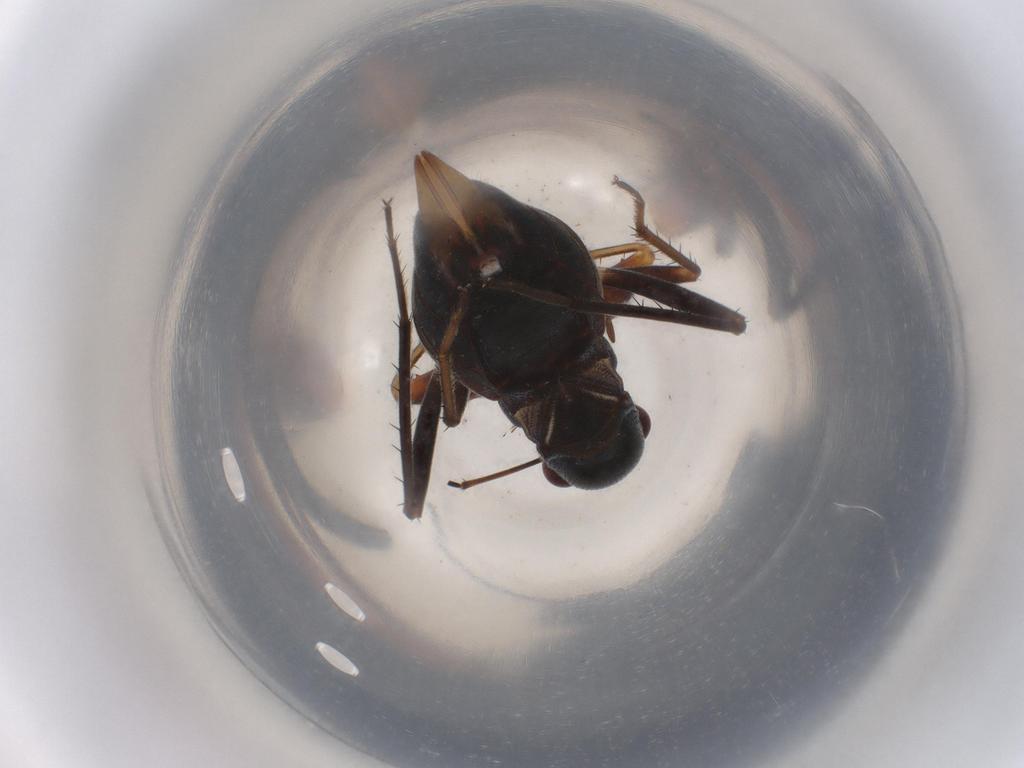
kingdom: Animalia
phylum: Arthropoda
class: Insecta
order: Hemiptera
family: Rhyparochromidae
